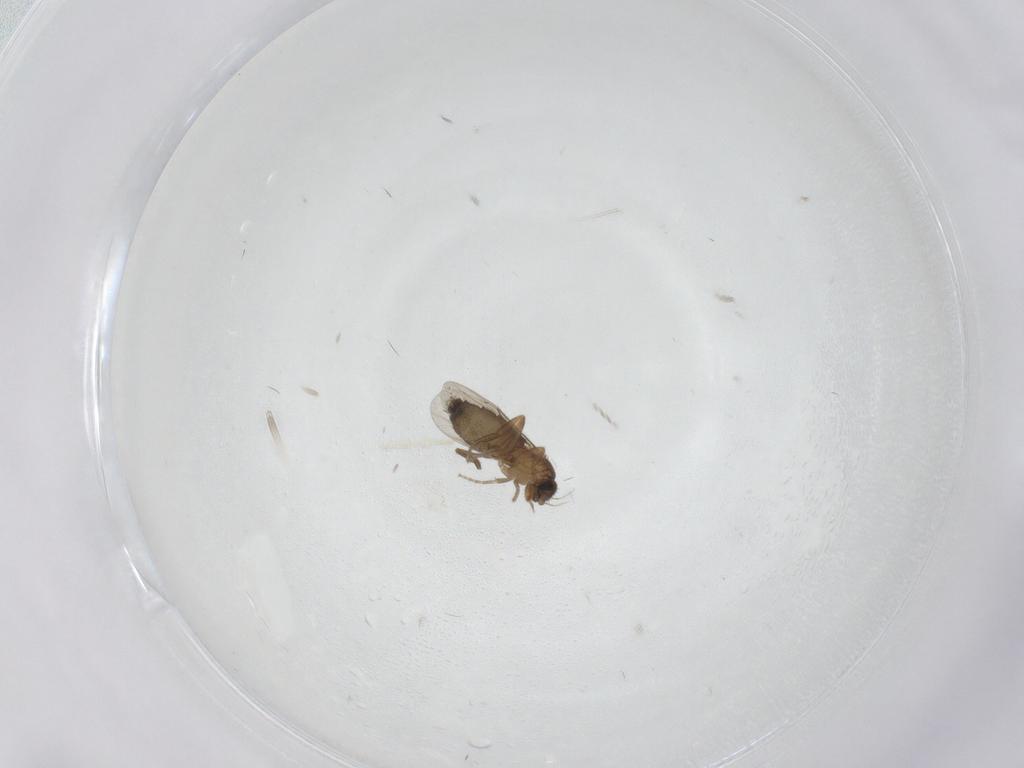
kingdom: Animalia
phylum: Arthropoda
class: Insecta
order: Diptera
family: Phoridae
